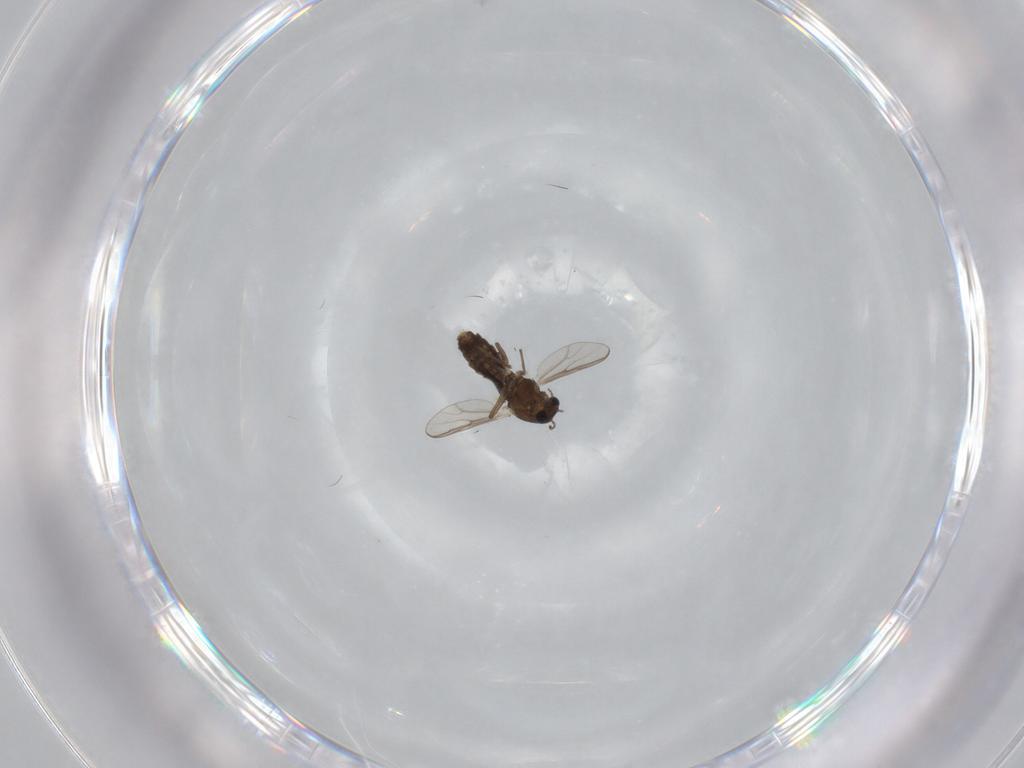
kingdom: Animalia
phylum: Arthropoda
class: Insecta
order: Diptera
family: Chironomidae
